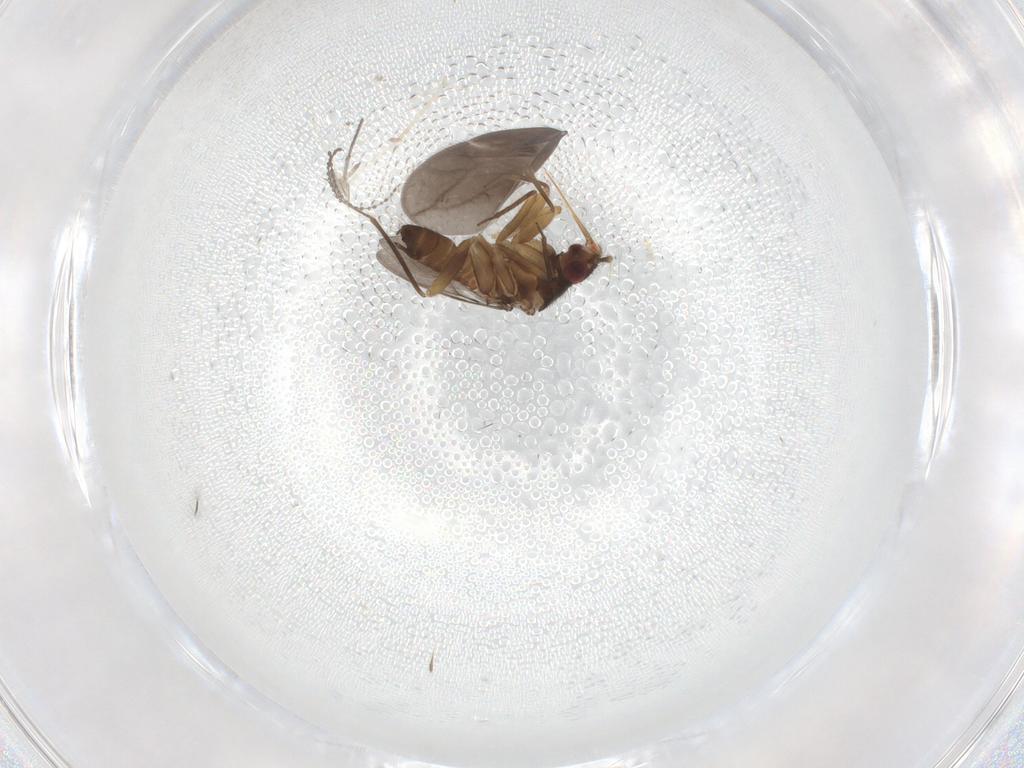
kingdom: Animalia
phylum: Arthropoda
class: Insecta
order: Hemiptera
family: Ceratocombidae
